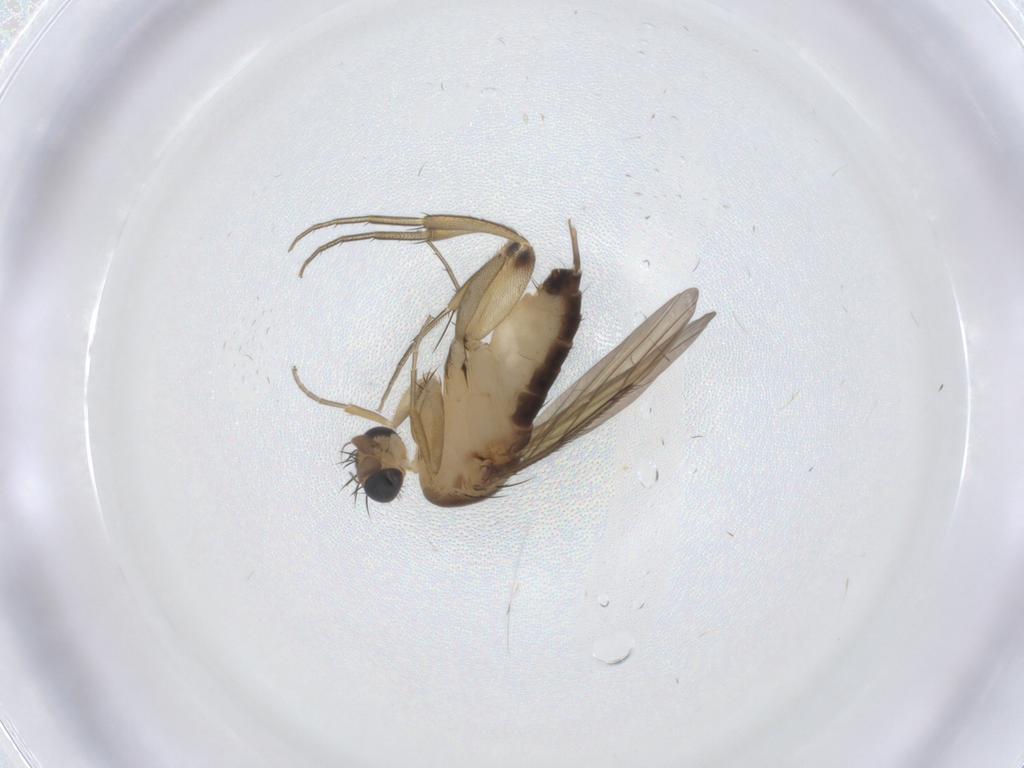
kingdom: Animalia
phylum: Arthropoda
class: Insecta
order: Diptera
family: Phoridae
